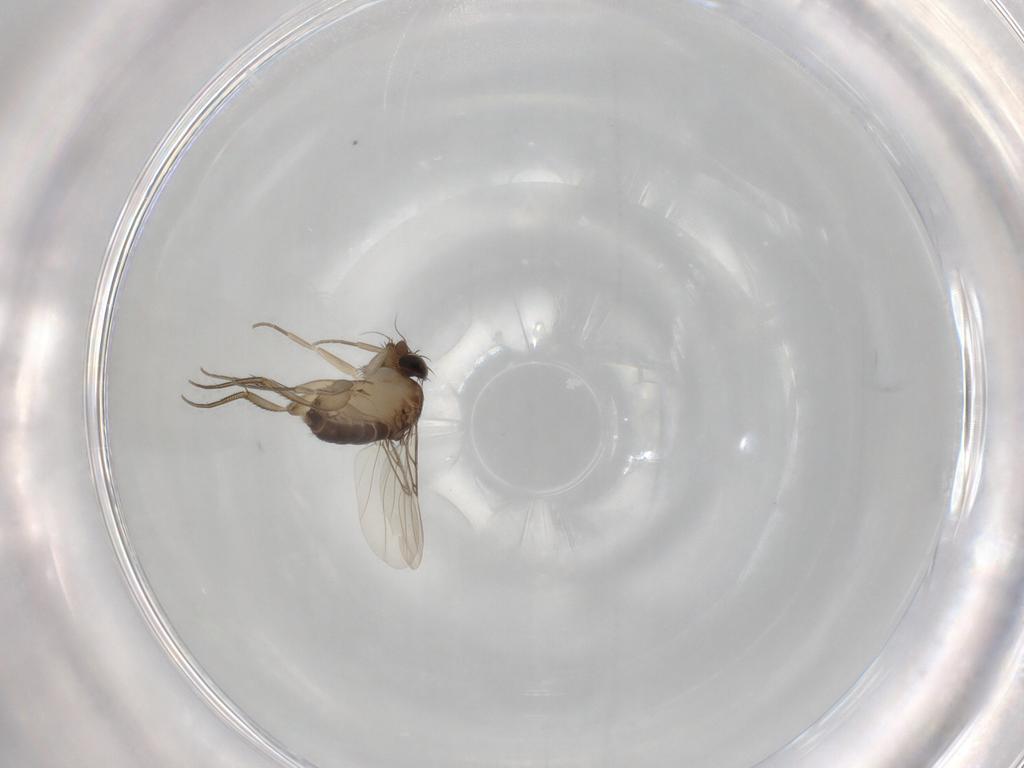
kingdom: Animalia
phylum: Arthropoda
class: Insecta
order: Diptera
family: Phoridae
